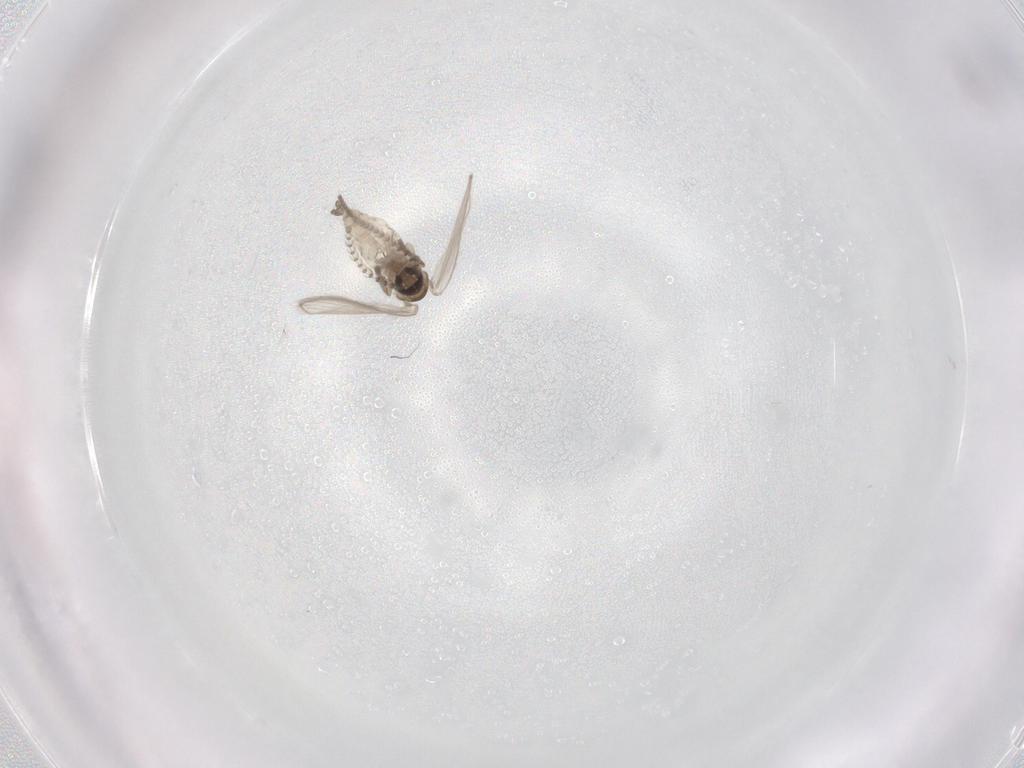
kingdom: Animalia
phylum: Arthropoda
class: Insecta
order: Diptera
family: Psychodidae
